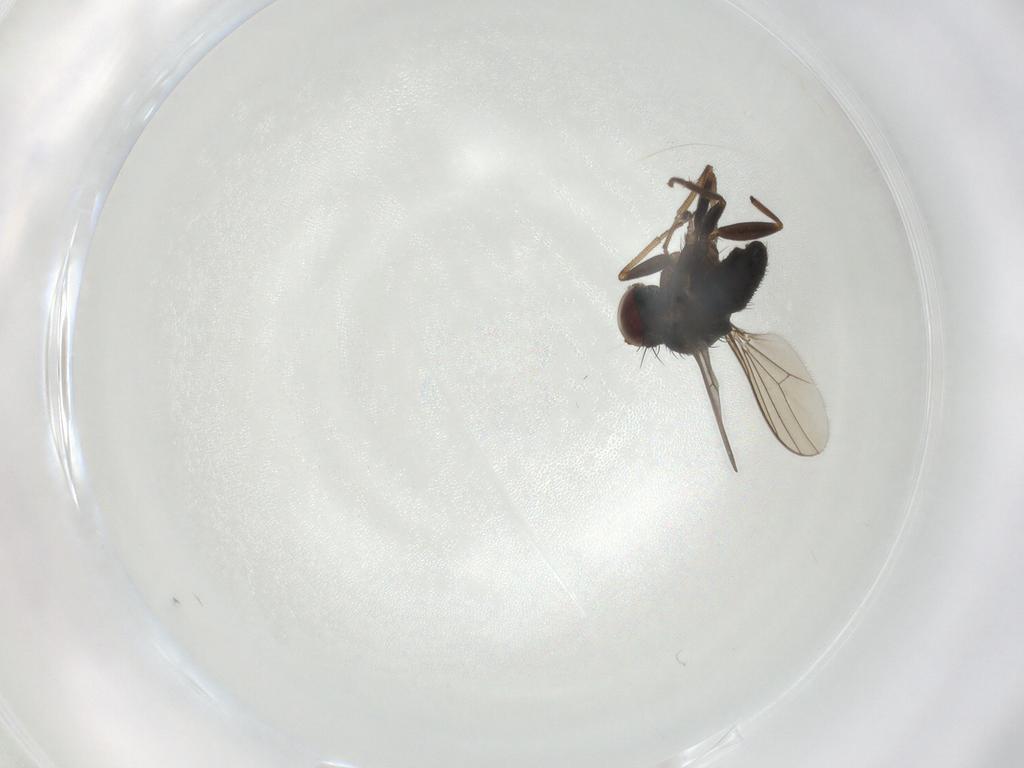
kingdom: Animalia
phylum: Arthropoda
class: Insecta
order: Diptera
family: Dolichopodidae
